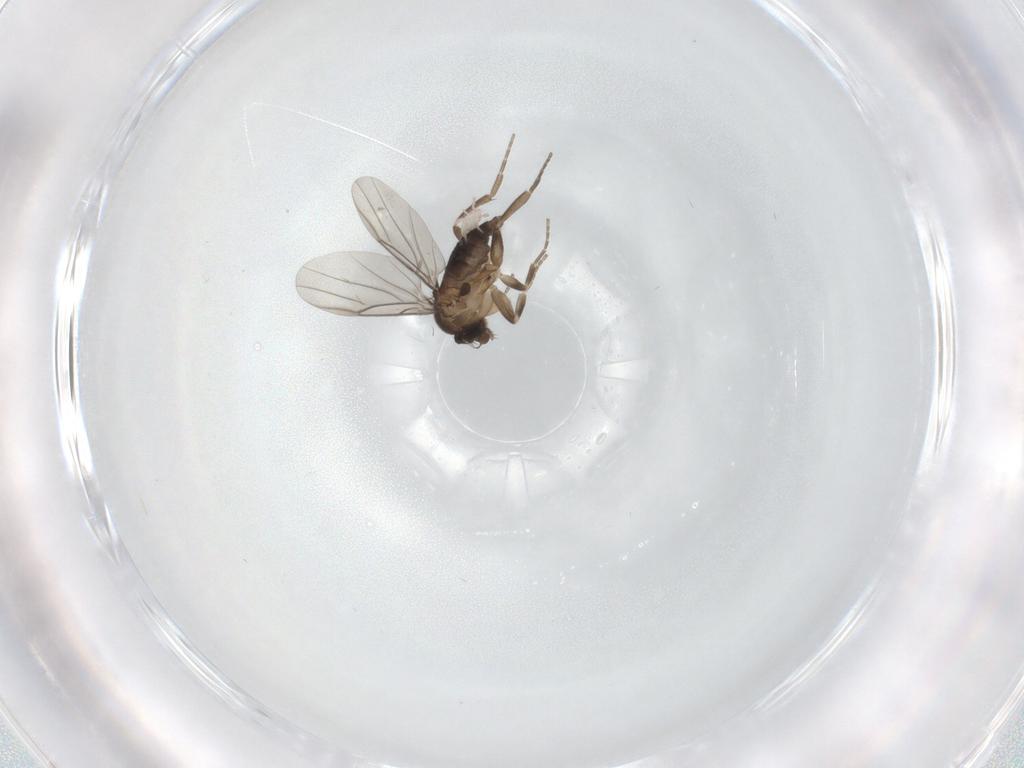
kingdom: Animalia
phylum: Arthropoda
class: Insecta
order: Diptera
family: Phoridae
